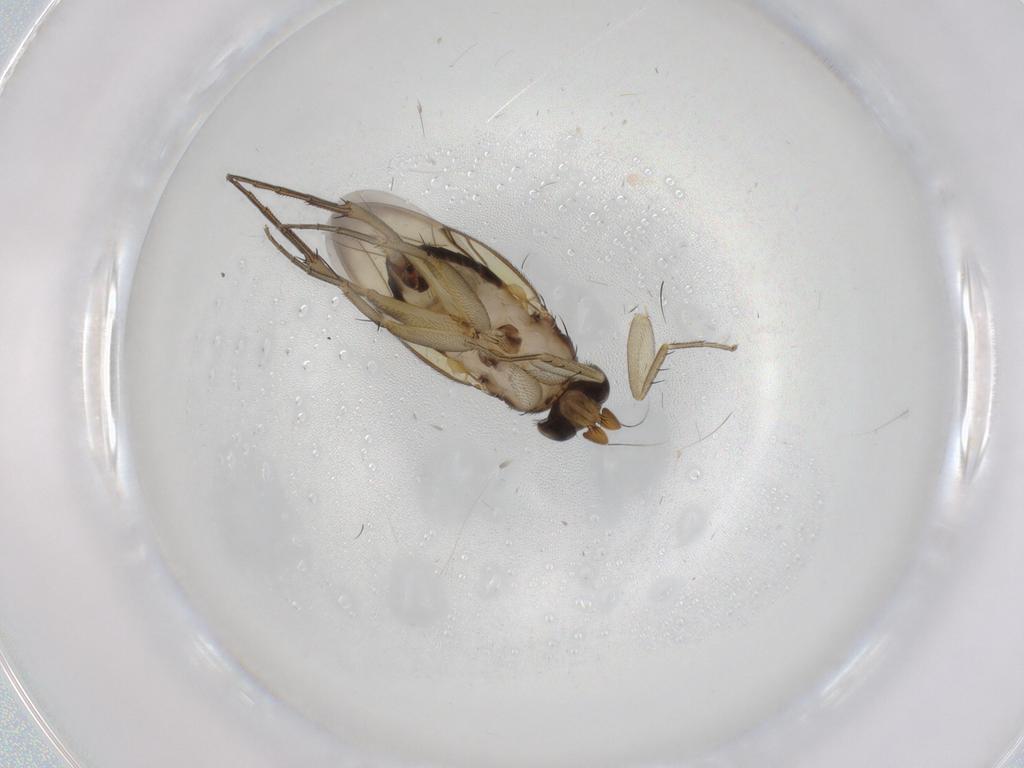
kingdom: Animalia
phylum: Arthropoda
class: Insecta
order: Diptera
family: Phoridae
